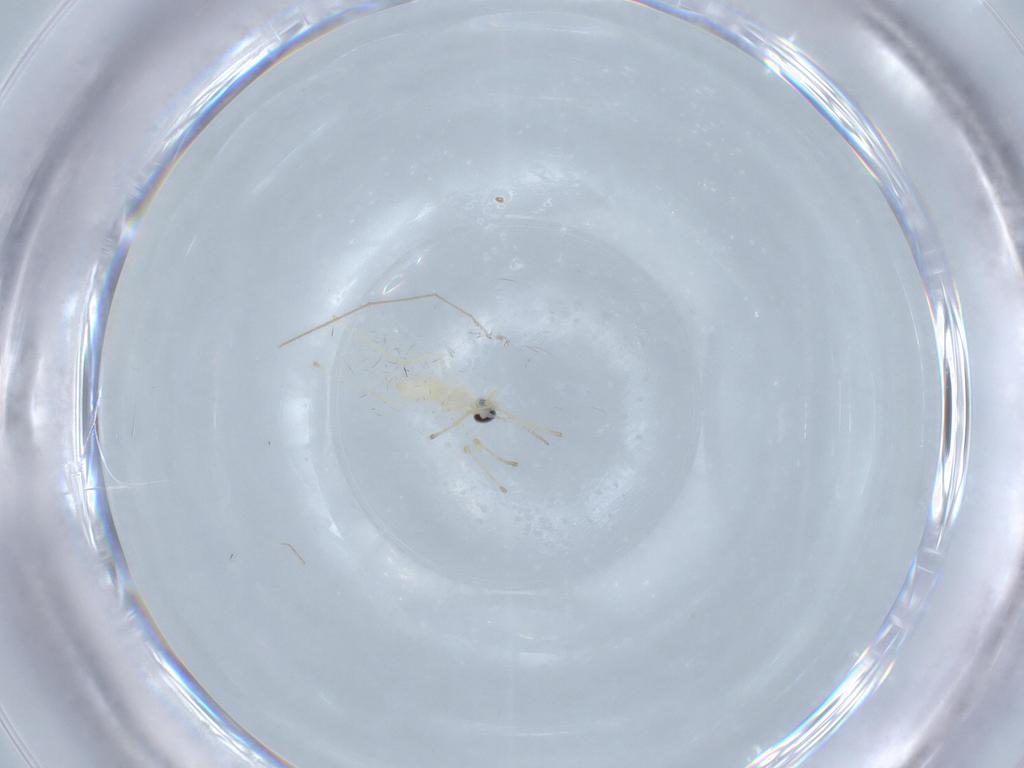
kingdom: Animalia
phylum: Arthropoda
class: Insecta
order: Diptera
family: Cecidomyiidae
